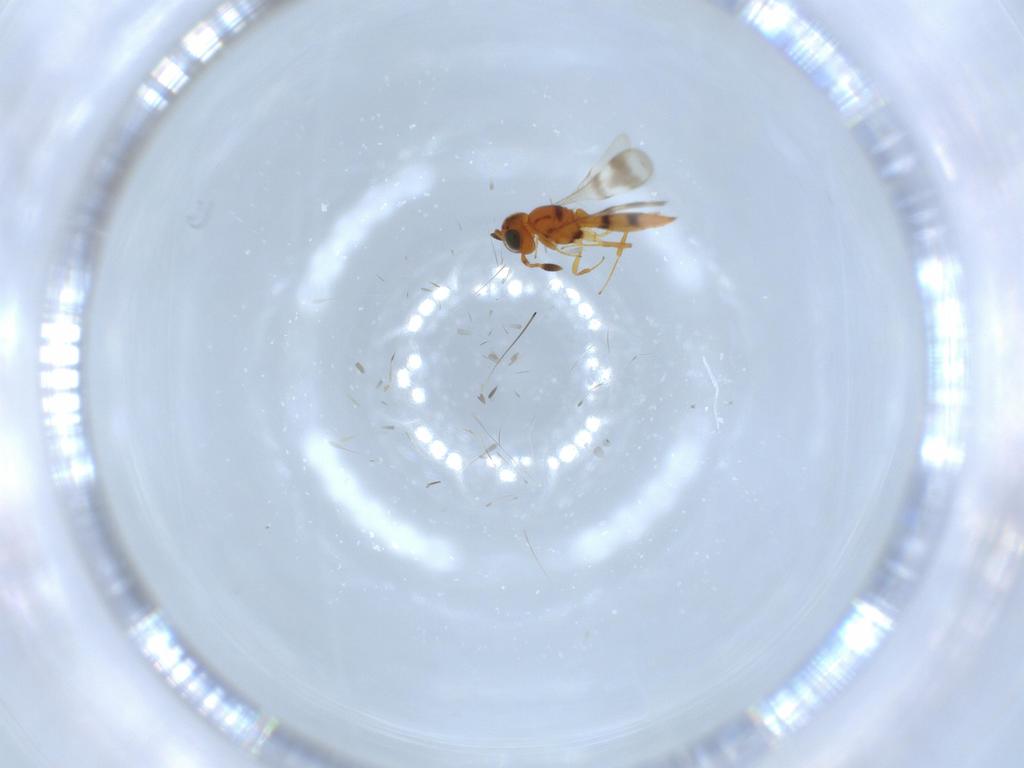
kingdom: Animalia
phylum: Arthropoda
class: Insecta
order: Hymenoptera
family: Scelionidae
